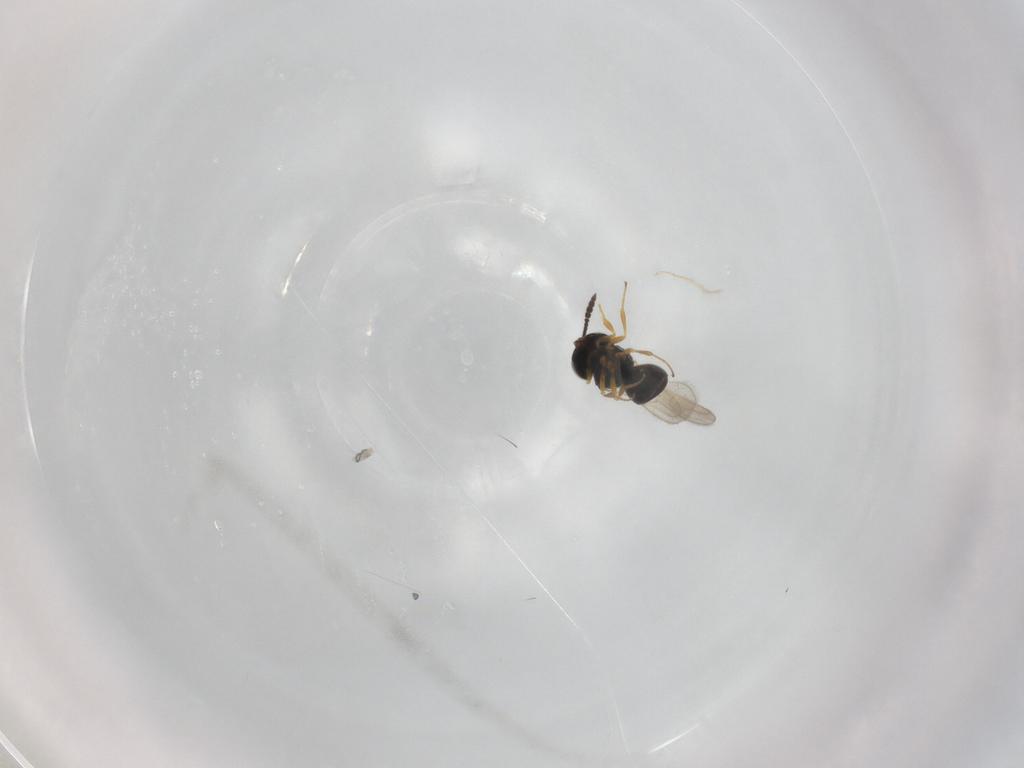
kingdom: Animalia
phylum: Arthropoda
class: Insecta
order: Hymenoptera
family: Scelionidae
